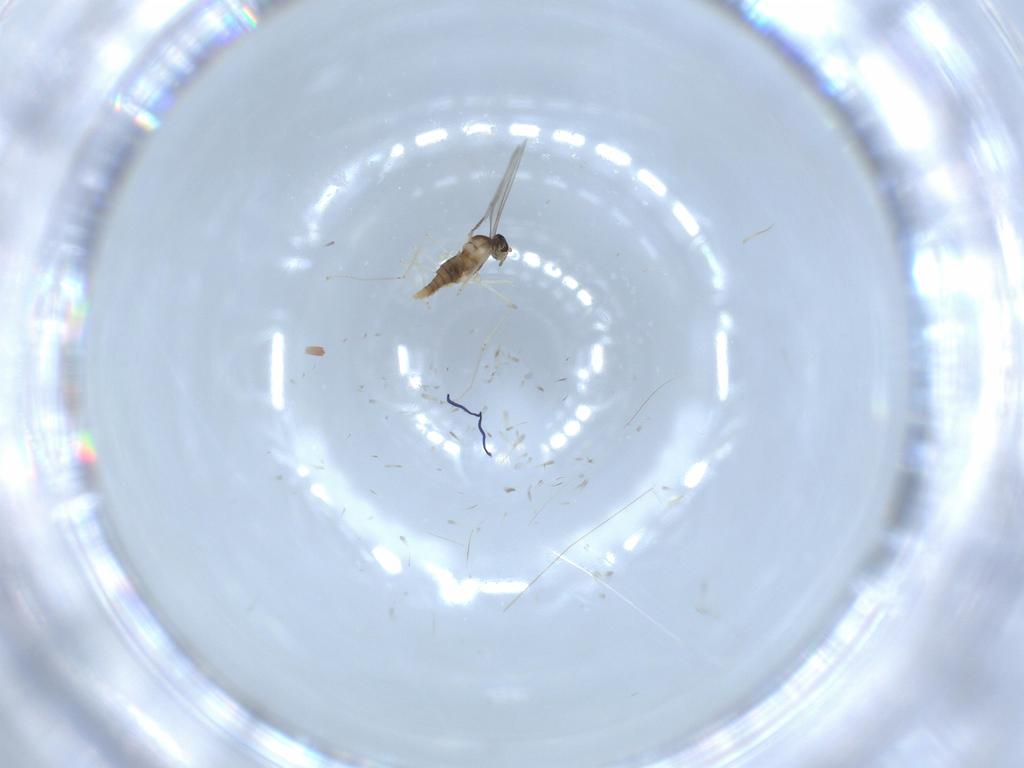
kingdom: Animalia
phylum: Arthropoda
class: Insecta
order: Diptera
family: Cecidomyiidae
